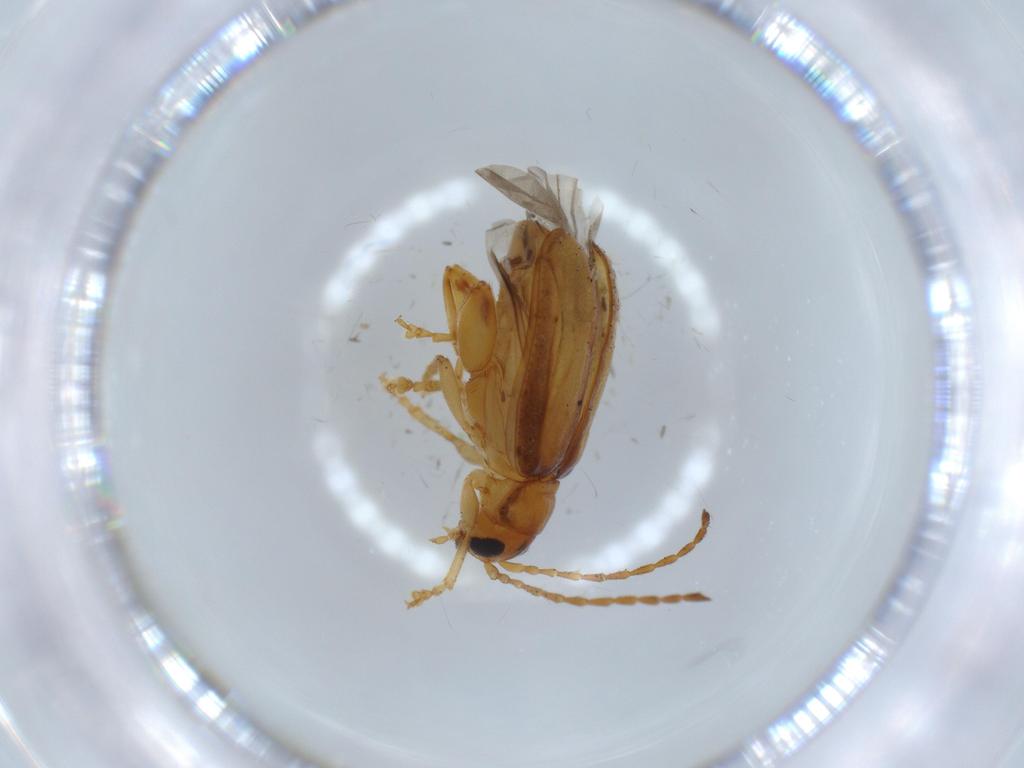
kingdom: Animalia
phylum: Arthropoda
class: Insecta
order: Coleoptera
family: Chrysomelidae
